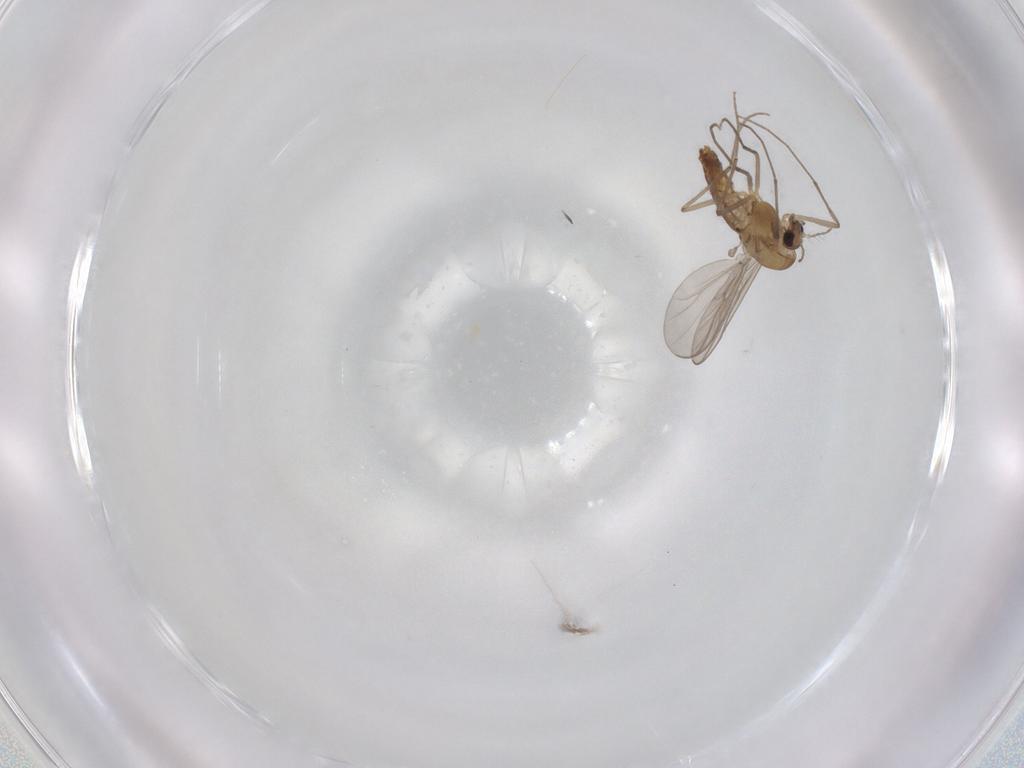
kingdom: Animalia
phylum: Arthropoda
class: Insecta
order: Diptera
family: Chironomidae
